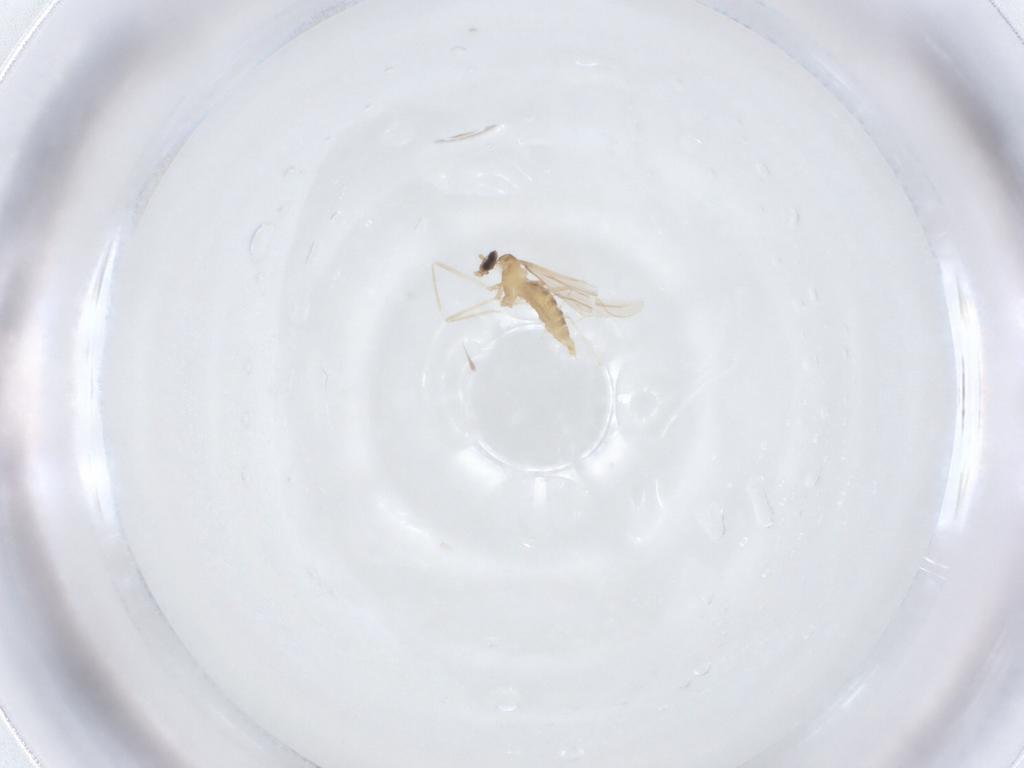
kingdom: Animalia
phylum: Arthropoda
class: Insecta
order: Diptera
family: Cecidomyiidae
